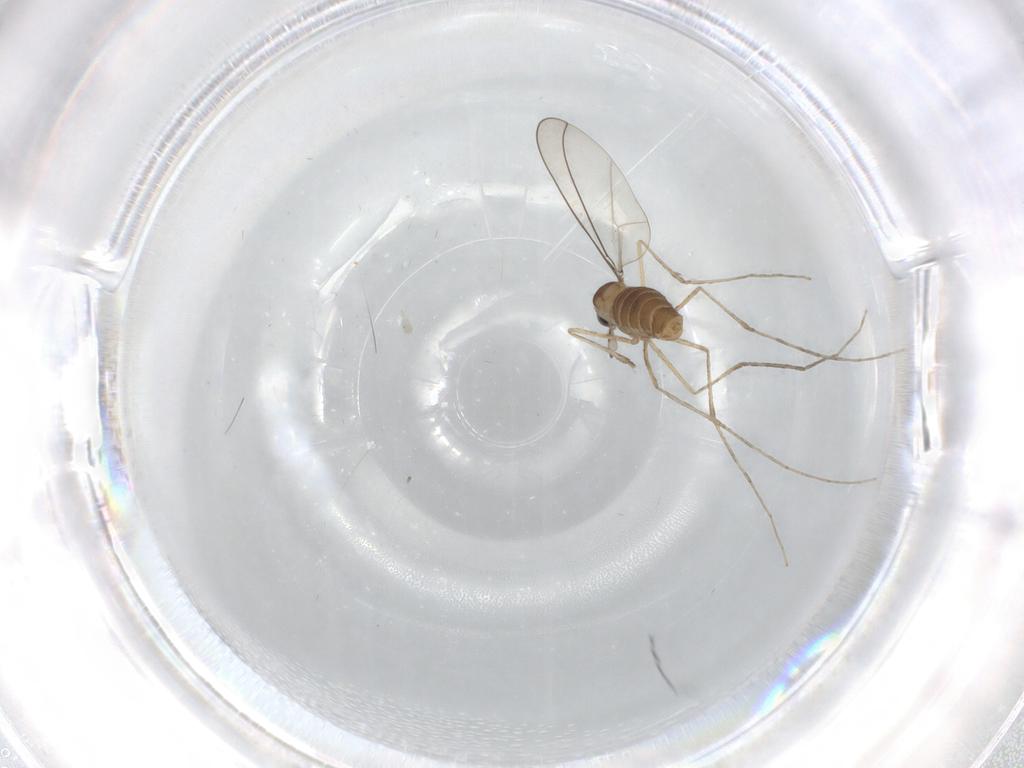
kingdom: Animalia
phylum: Arthropoda
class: Insecta
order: Diptera
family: Cecidomyiidae
